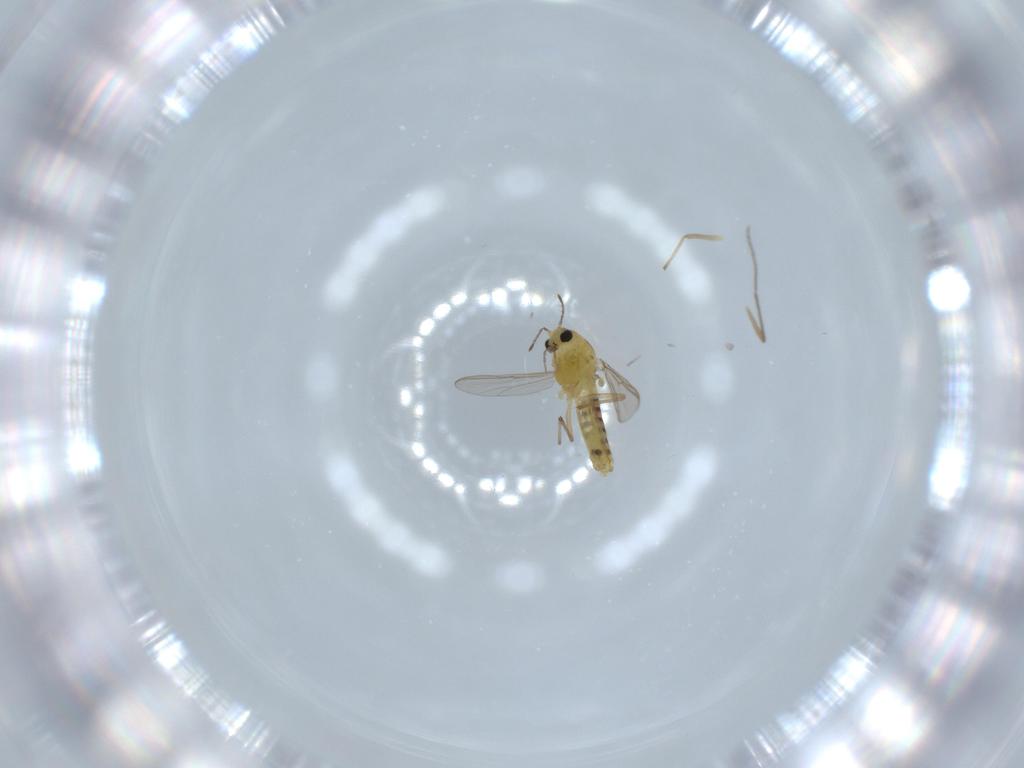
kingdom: Animalia
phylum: Arthropoda
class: Insecta
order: Diptera
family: Chironomidae
